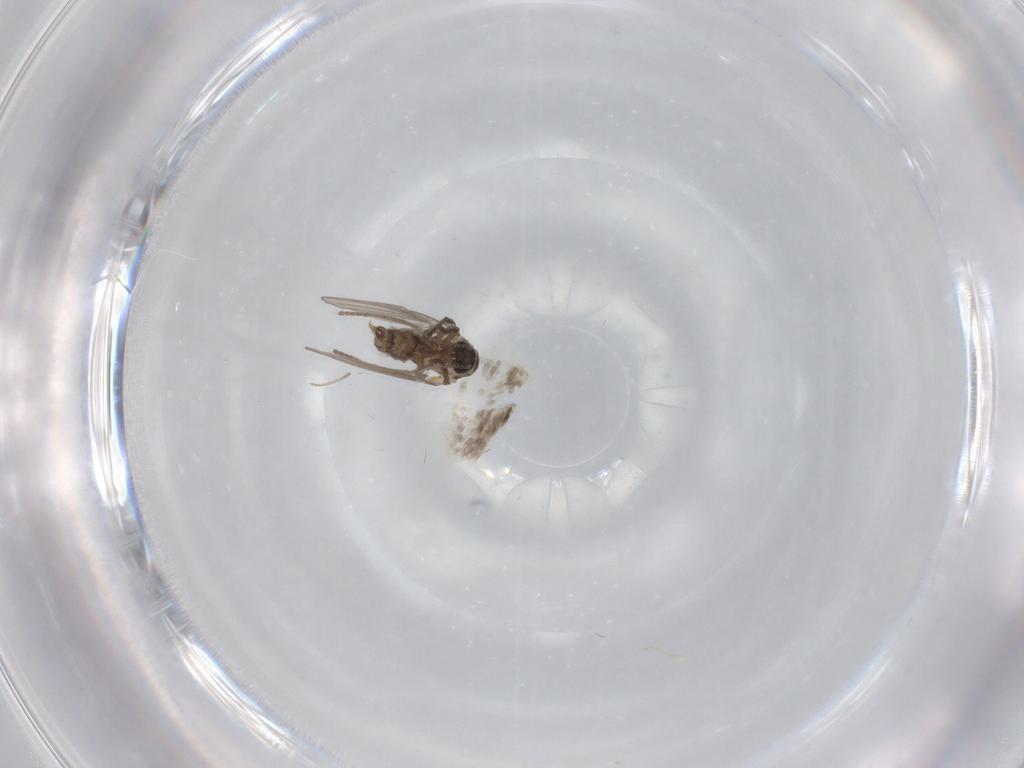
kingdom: Animalia
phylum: Arthropoda
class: Insecta
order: Diptera
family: Psychodidae
